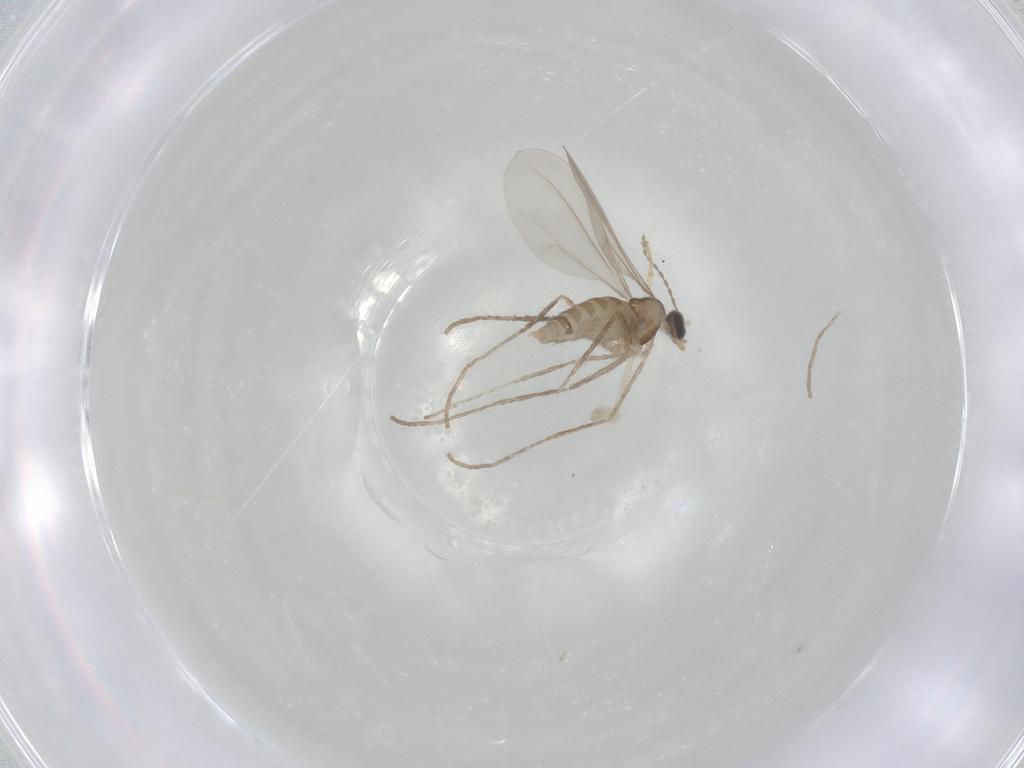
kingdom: Animalia
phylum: Arthropoda
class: Insecta
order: Diptera
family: Cecidomyiidae
